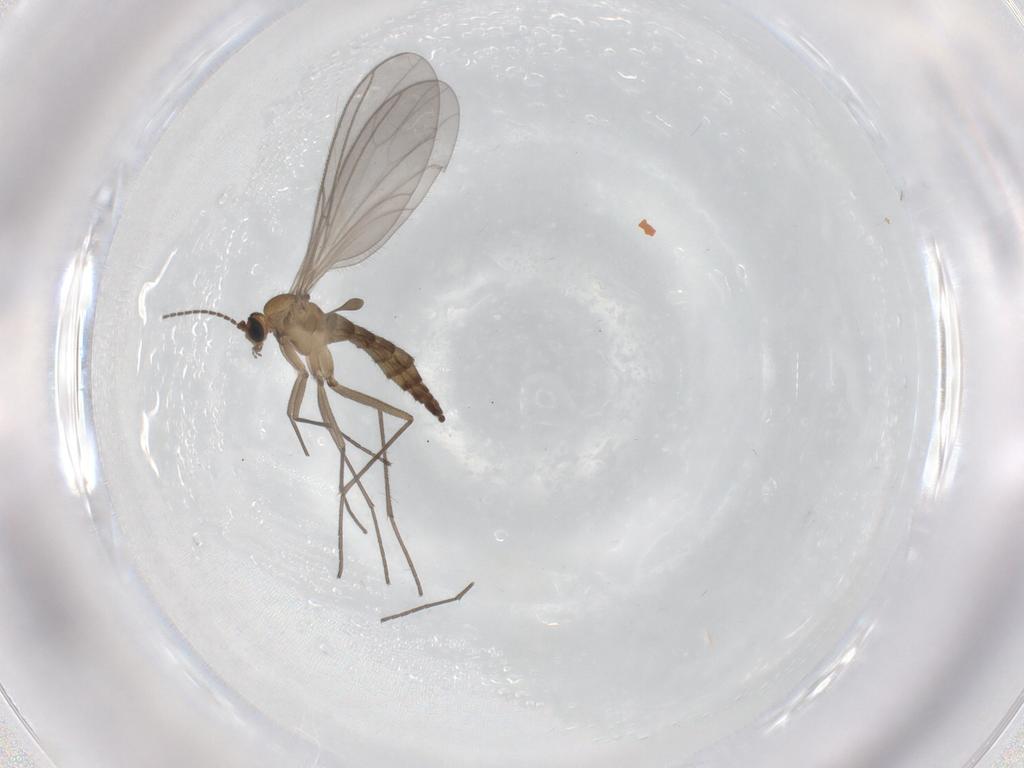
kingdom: Animalia
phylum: Arthropoda
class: Insecta
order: Diptera
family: Sciaridae
